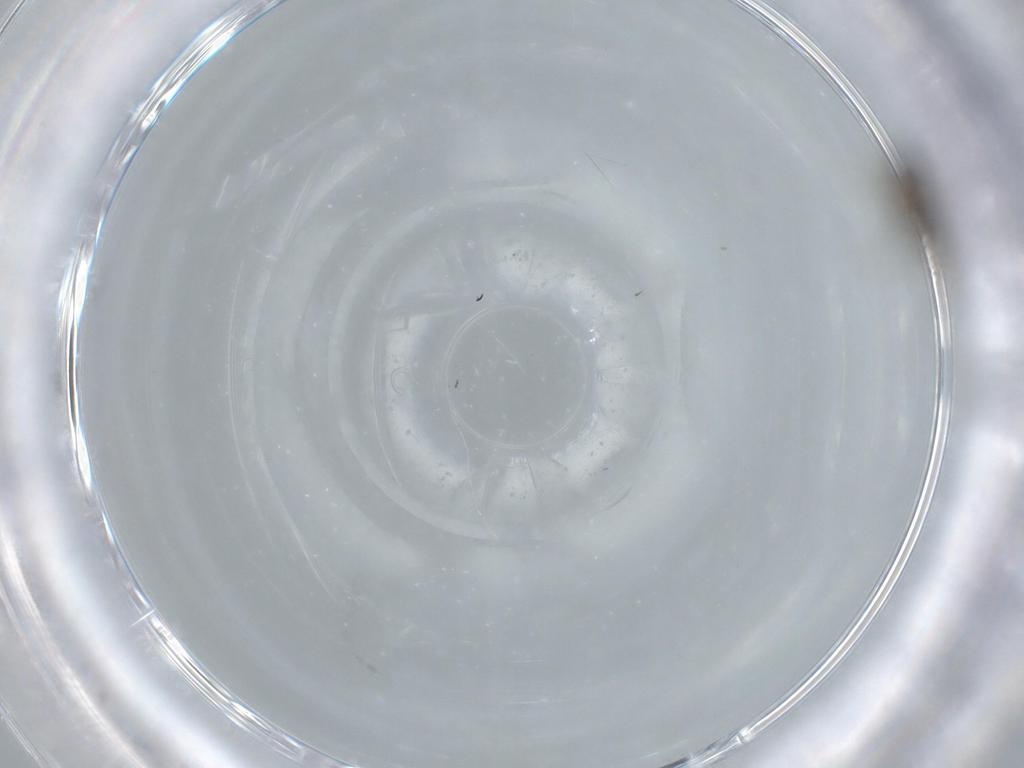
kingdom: Animalia
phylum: Arthropoda
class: Insecta
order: Diptera
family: Cecidomyiidae
